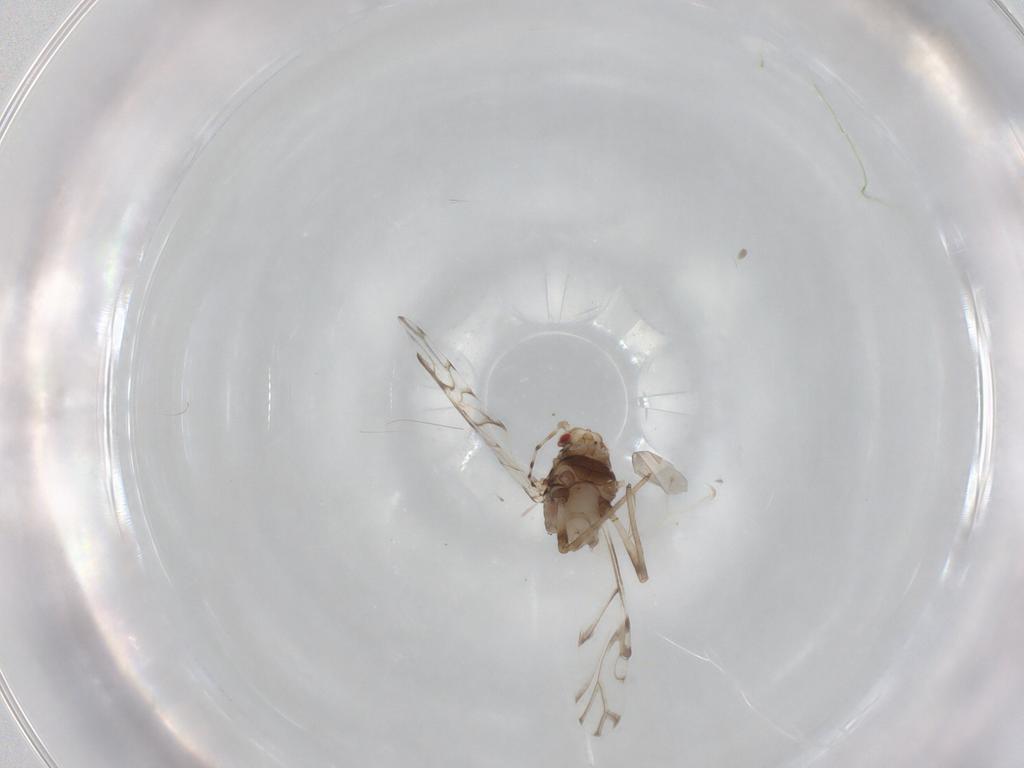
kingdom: Animalia
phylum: Arthropoda
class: Insecta
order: Hemiptera
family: Aphididae
